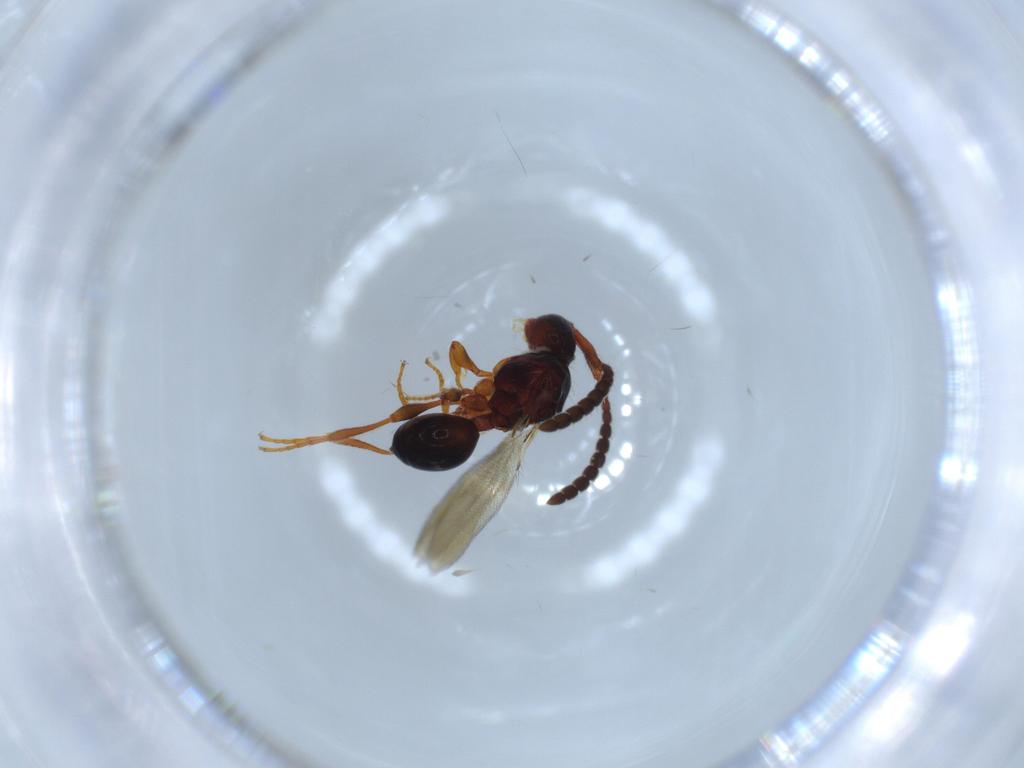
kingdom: Animalia
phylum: Arthropoda
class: Insecta
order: Hymenoptera
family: Diapriidae
